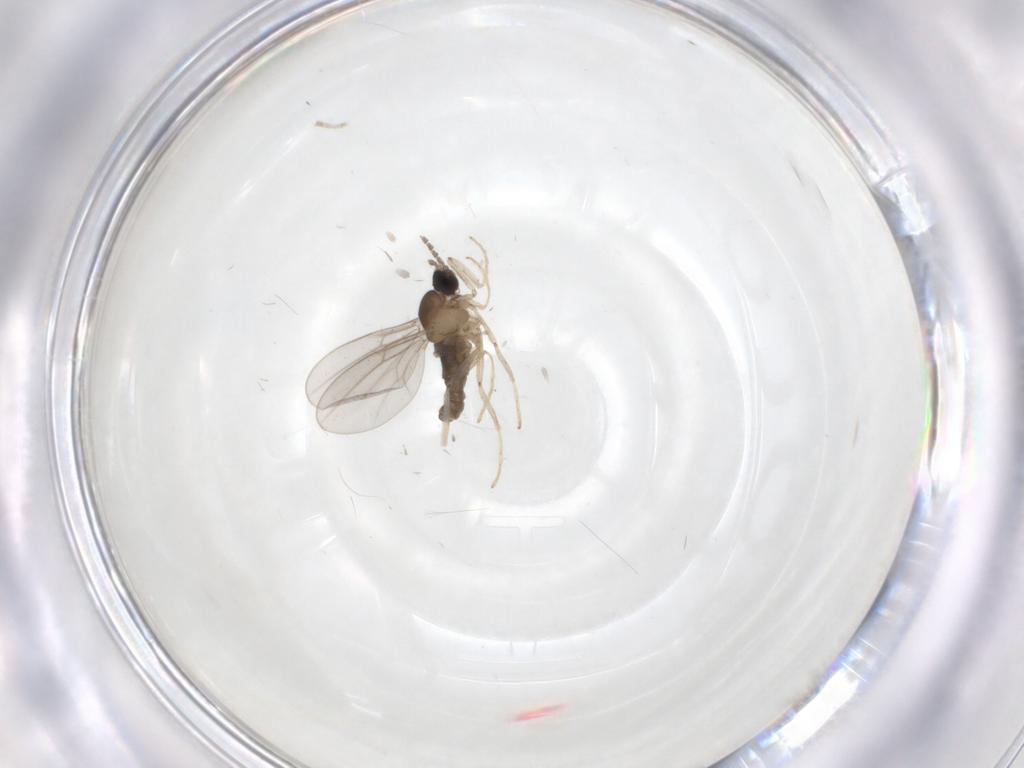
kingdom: Animalia
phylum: Arthropoda
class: Insecta
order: Diptera
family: Cecidomyiidae
